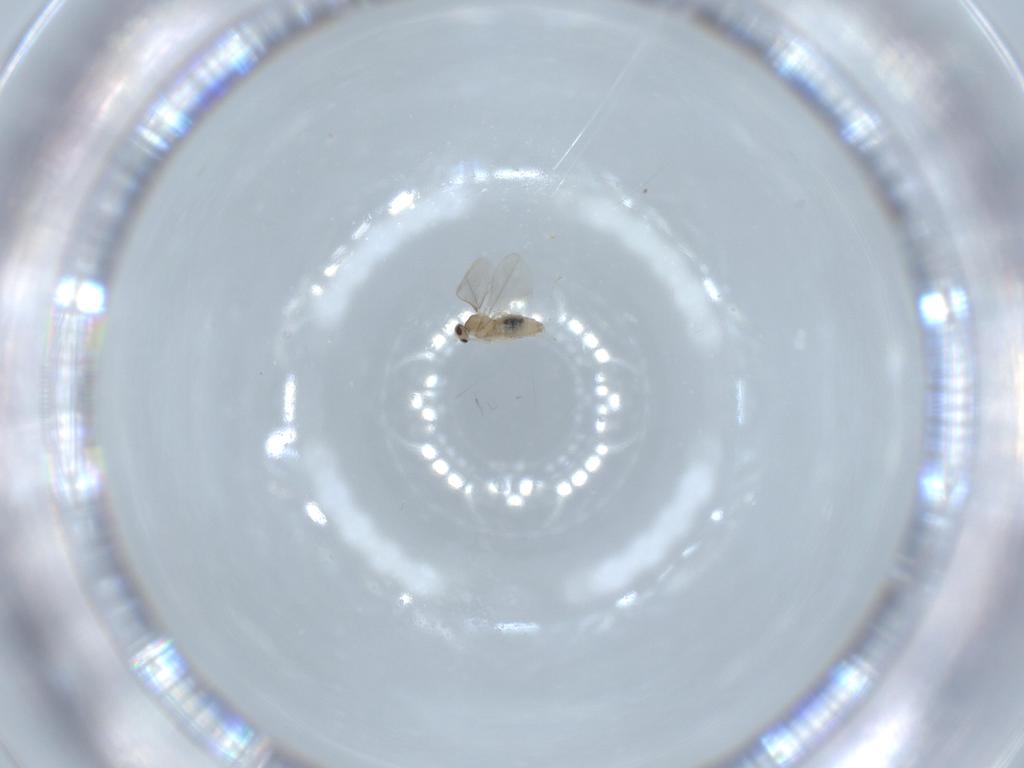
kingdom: Animalia
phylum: Arthropoda
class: Insecta
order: Diptera
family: Cecidomyiidae
